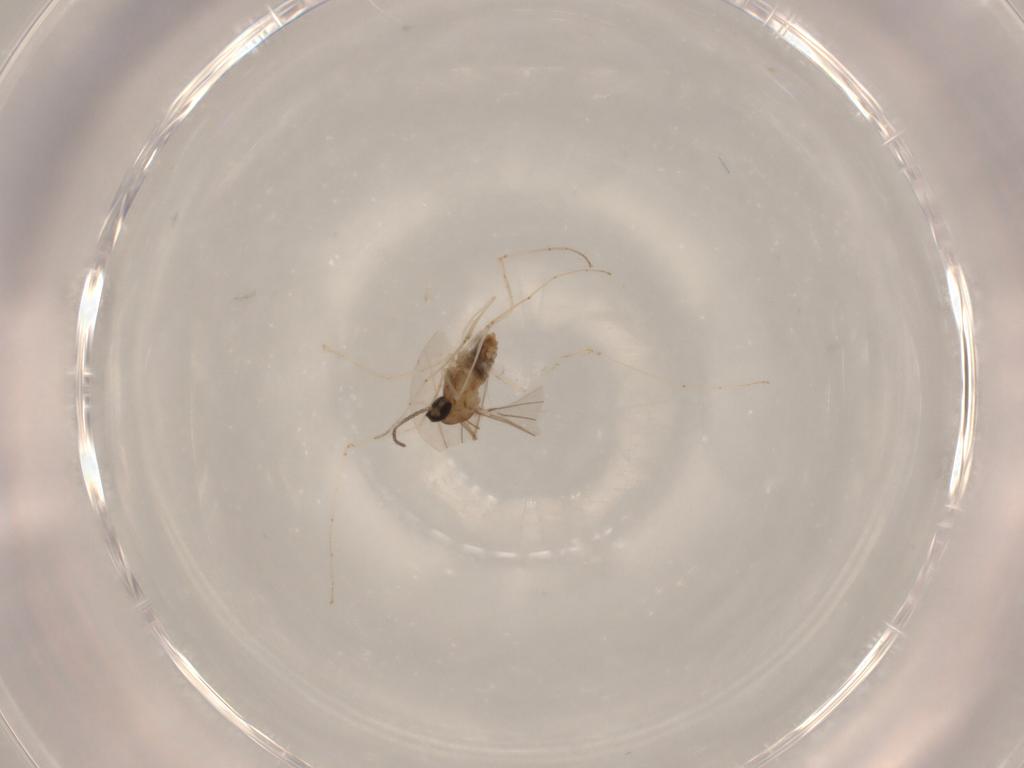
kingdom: Animalia
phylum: Arthropoda
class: Insecta
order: Diptera
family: Cecidomyiidae
